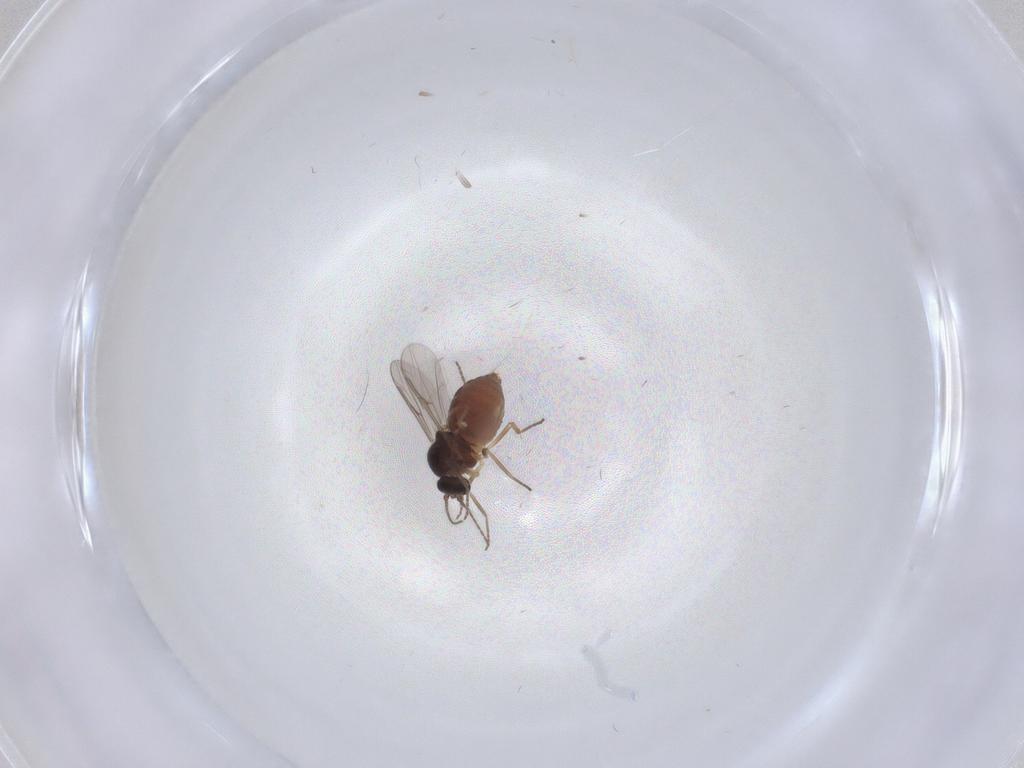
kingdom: Animalia
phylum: Arthropoda
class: Insecta
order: Diptera
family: Ceratopogonidae
